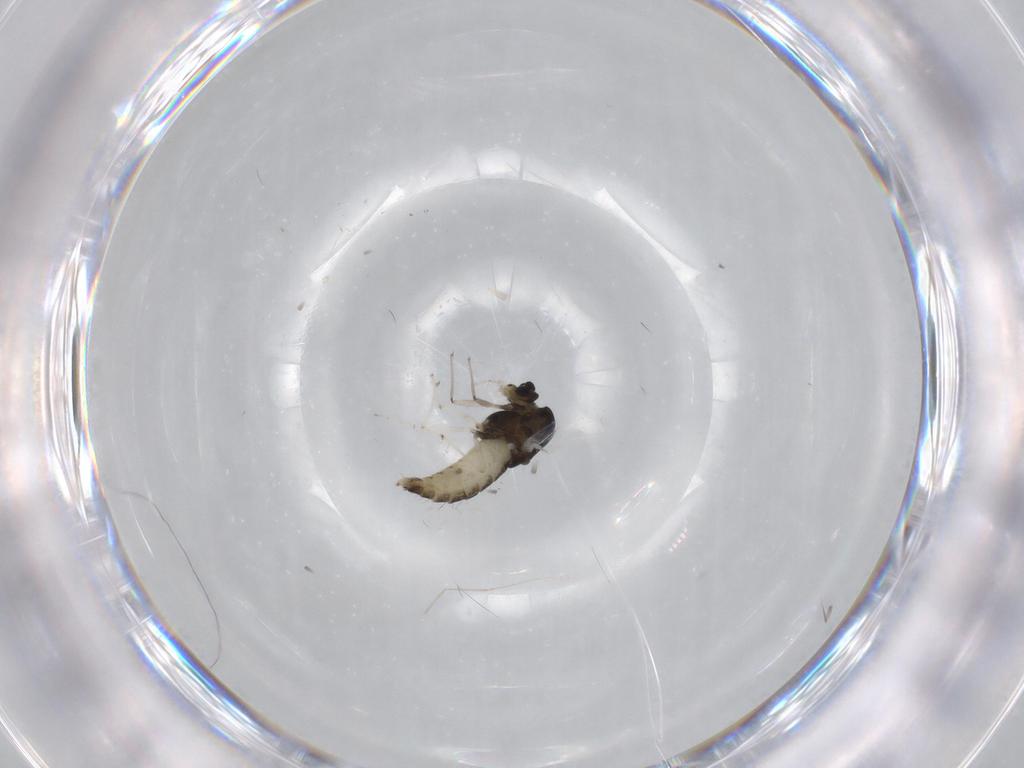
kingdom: Animalia
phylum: Arthropoda
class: Insecta
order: Diptera
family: Chironomidae
